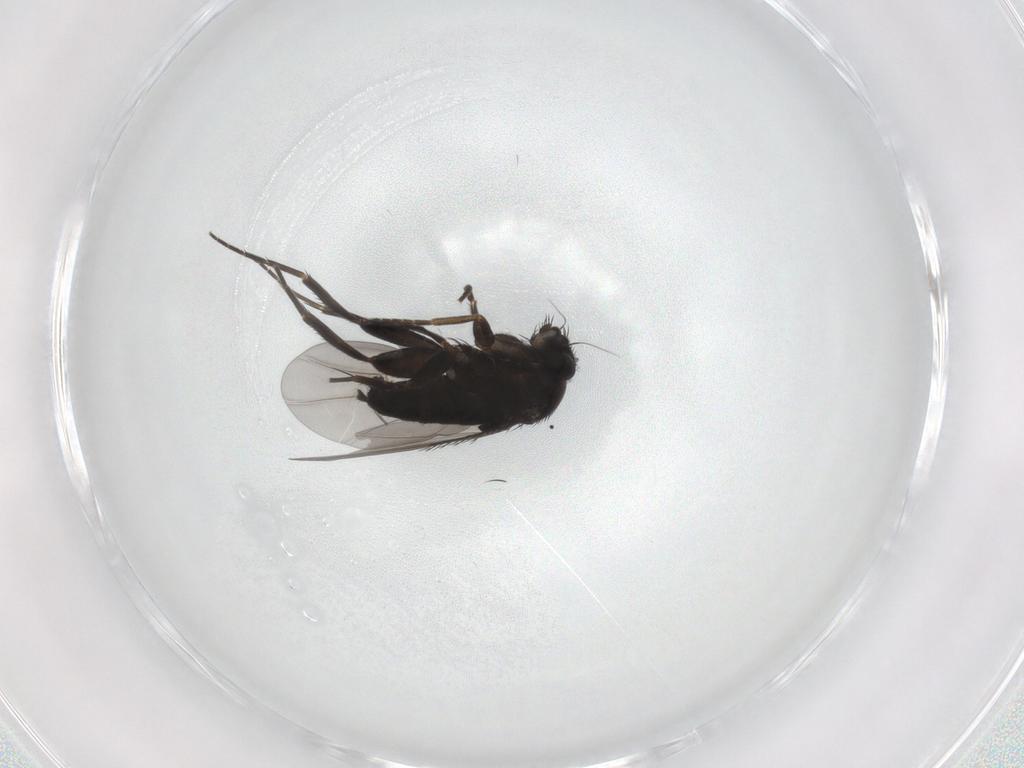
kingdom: Animalia
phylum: Arthropoda
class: Insecta
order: Diptera
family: Phoridae
